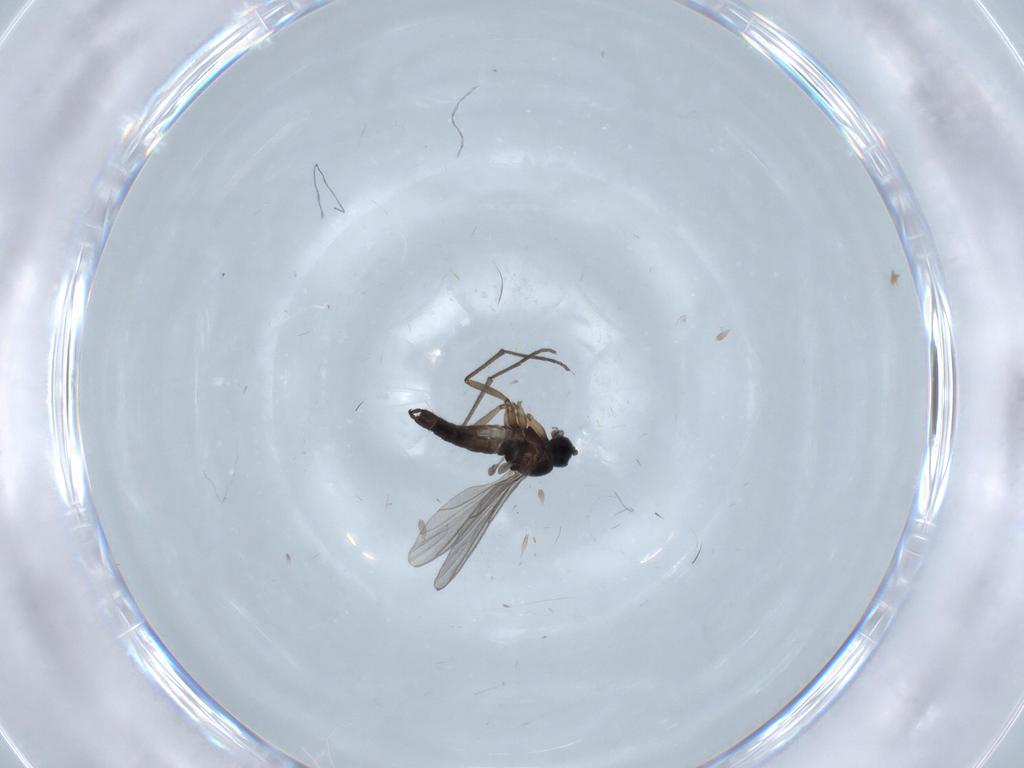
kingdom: Animalia
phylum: Arthropoda
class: Insecta
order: Diptera
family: Sciaridae
